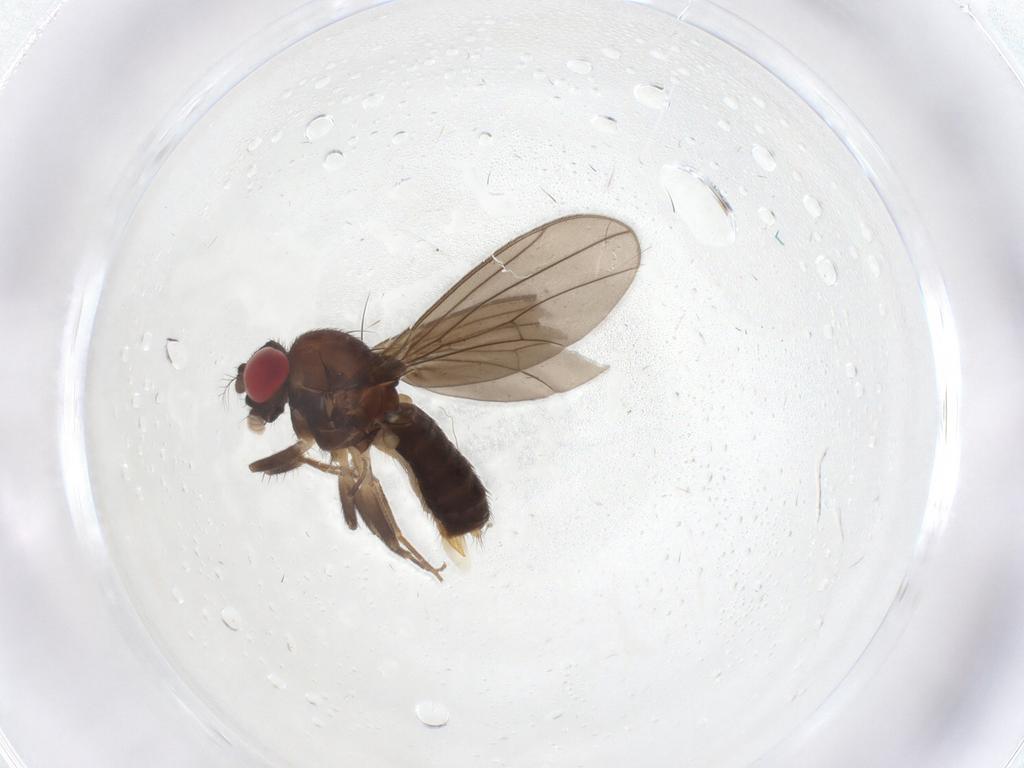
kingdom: Animalia
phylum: Arthropoda
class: Insecta
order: Diptera
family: Drosophilidae
